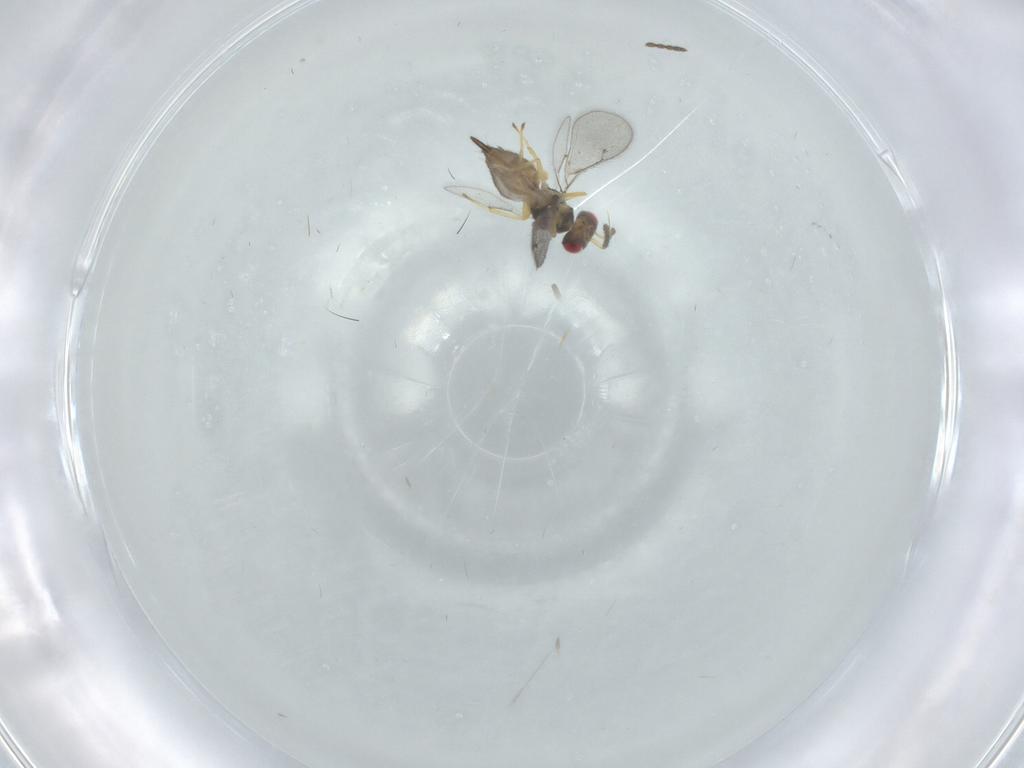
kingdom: Animalia
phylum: Arthropoda
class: Insecta
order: Hymenoptera
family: Eulophidae
